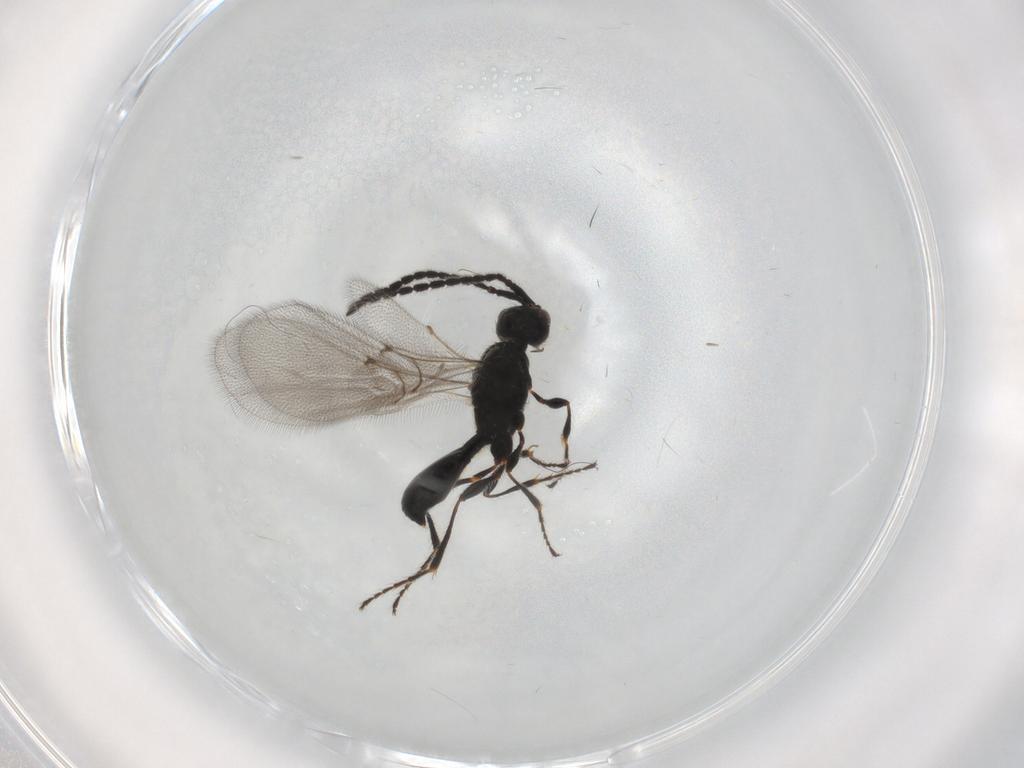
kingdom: Animalia
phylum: Arthropoda
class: Insecta
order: Hymenoptera
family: Diapriidae
